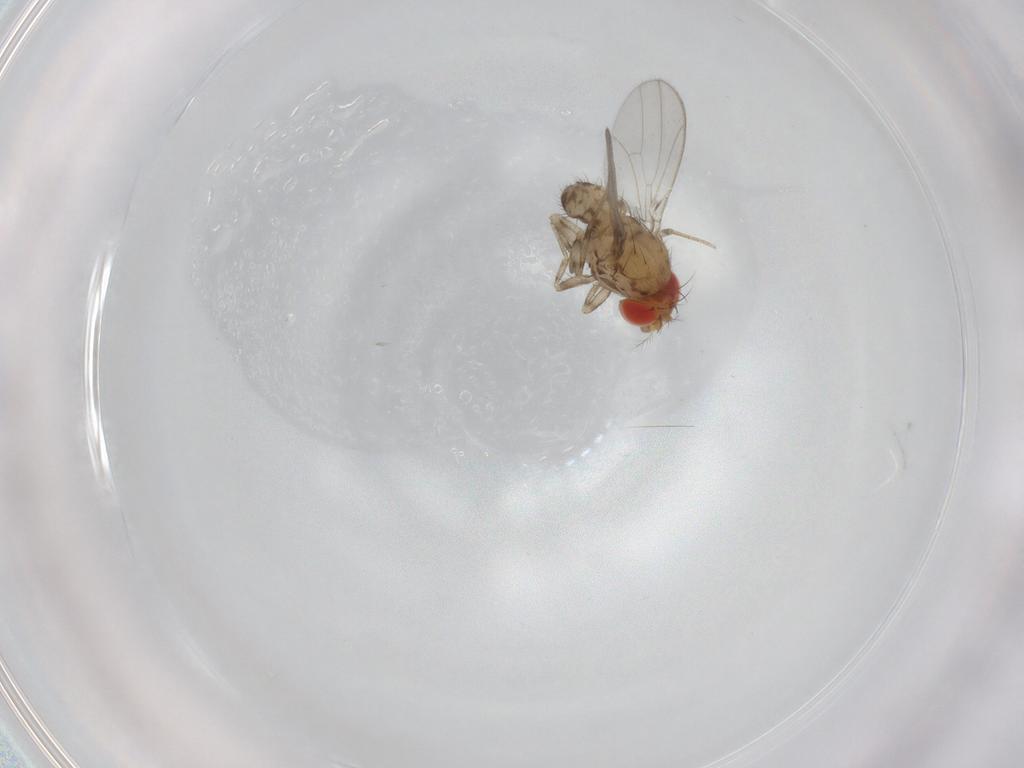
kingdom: Animalia
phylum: Arthropoda
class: Insecta
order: Diptera
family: Drosophilidae
